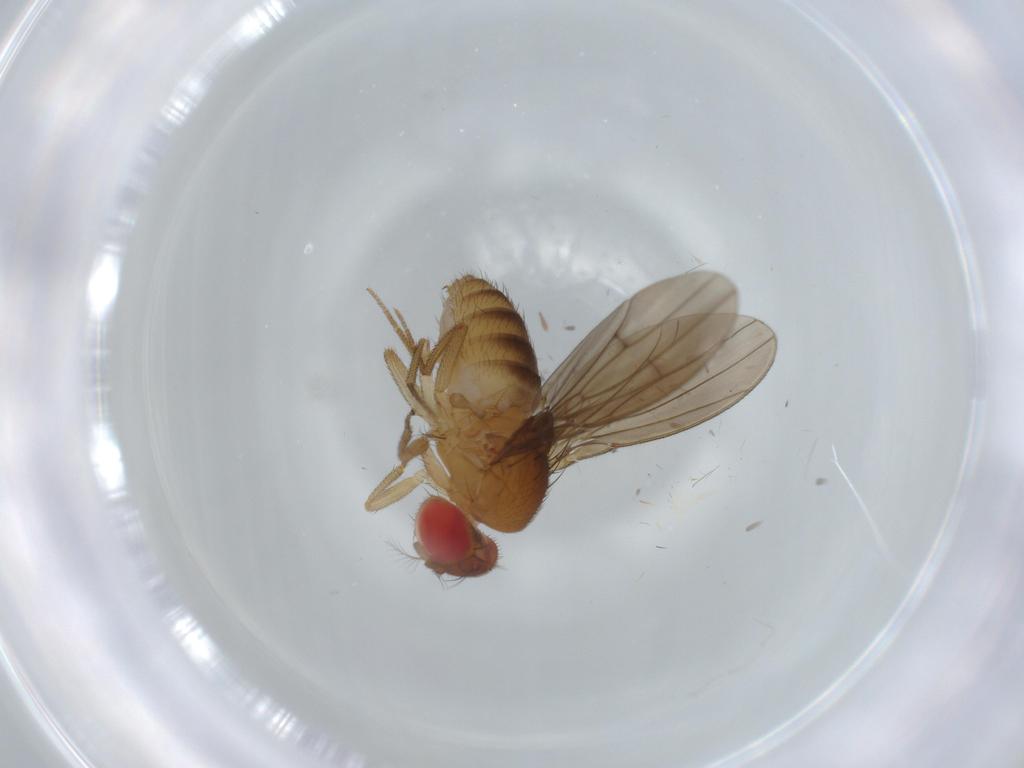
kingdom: Animalia
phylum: Arthropoda
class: Insecta
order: Diptera
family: Drosophilidae
